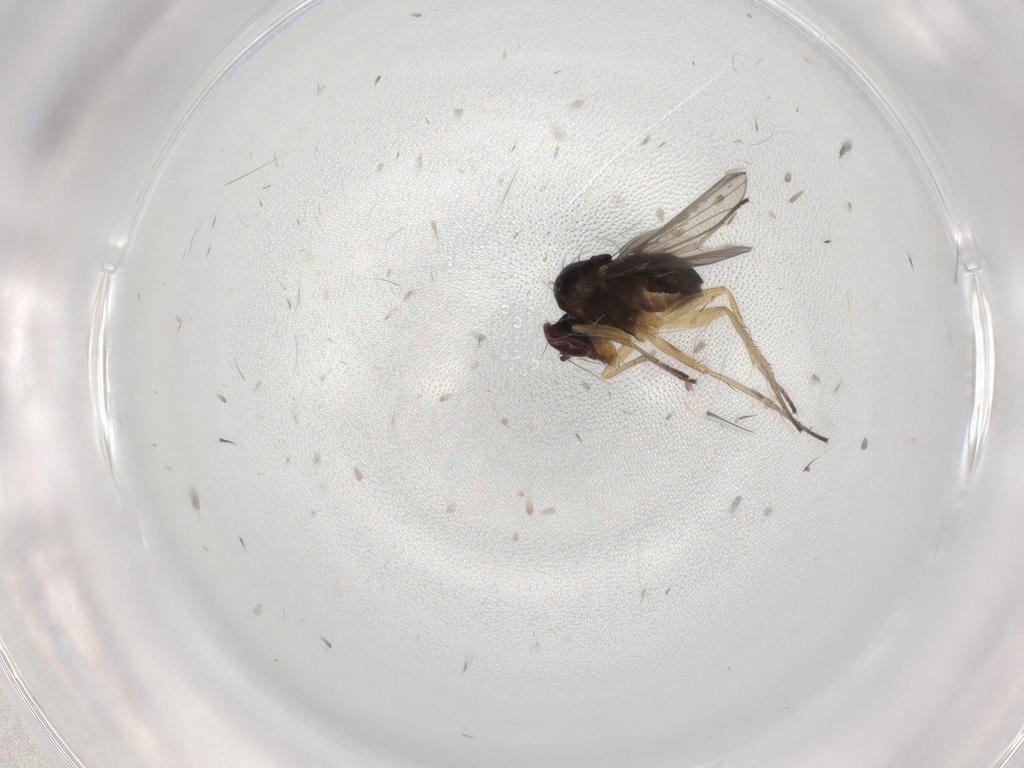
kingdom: Animalia
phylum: Arthropoda
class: Insecta
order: Diptera
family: Dolichopodidae
